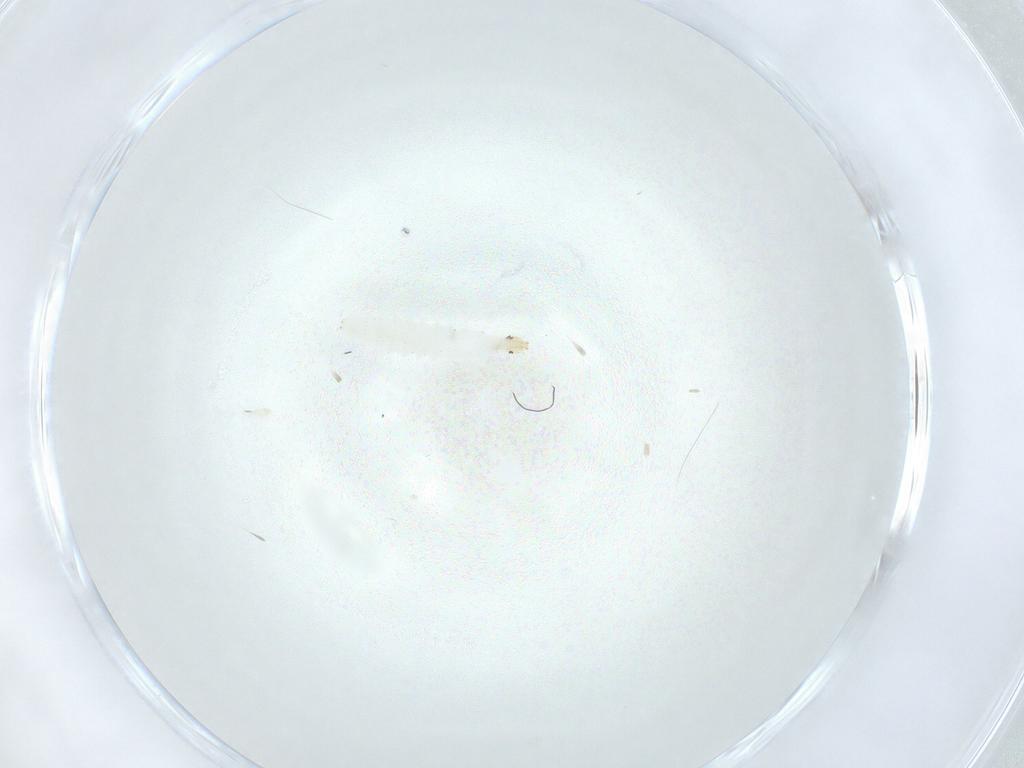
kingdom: Animalia
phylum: Arthropoda
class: Insecta
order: Diptera
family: Stratiomyidae
